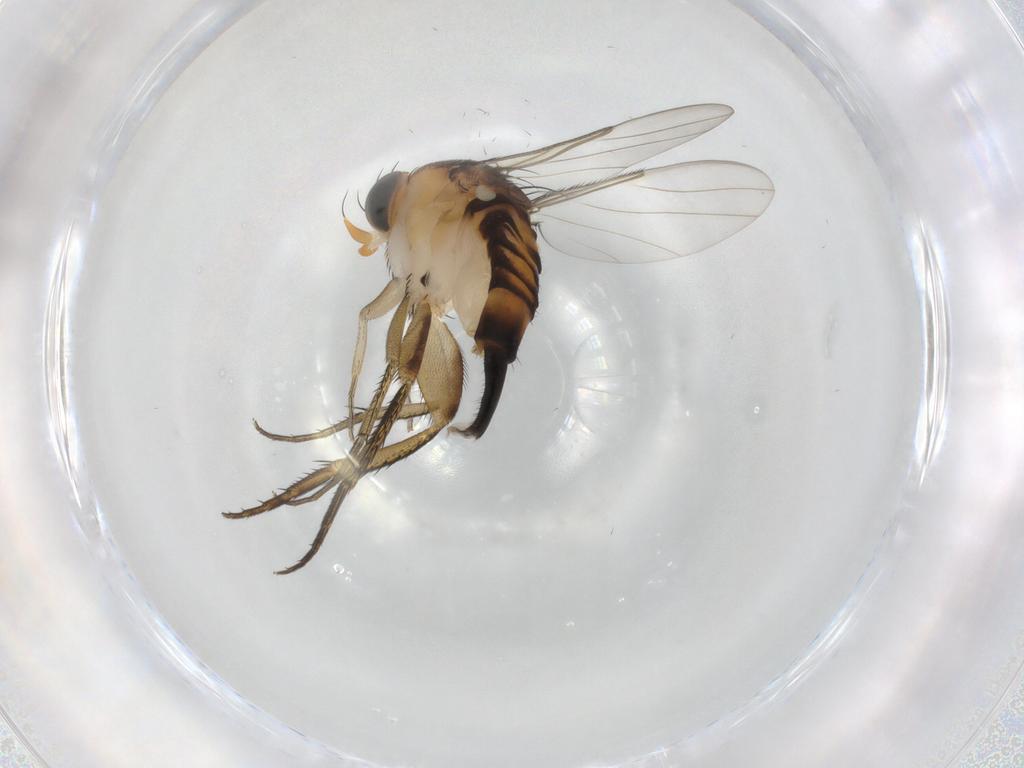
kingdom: Animalia
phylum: Arthropoda
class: Insecta
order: Diptera
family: Phoridae
